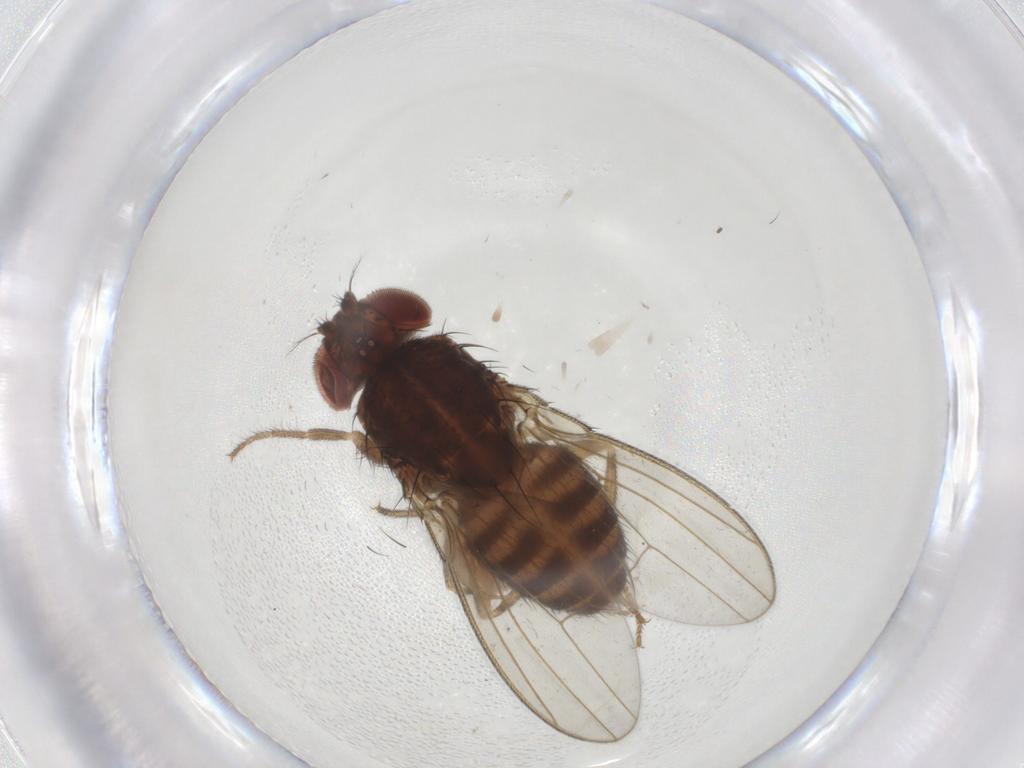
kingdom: Animalia
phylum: Arthropoda
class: Insecta
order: Diptera
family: Drosophilidae
